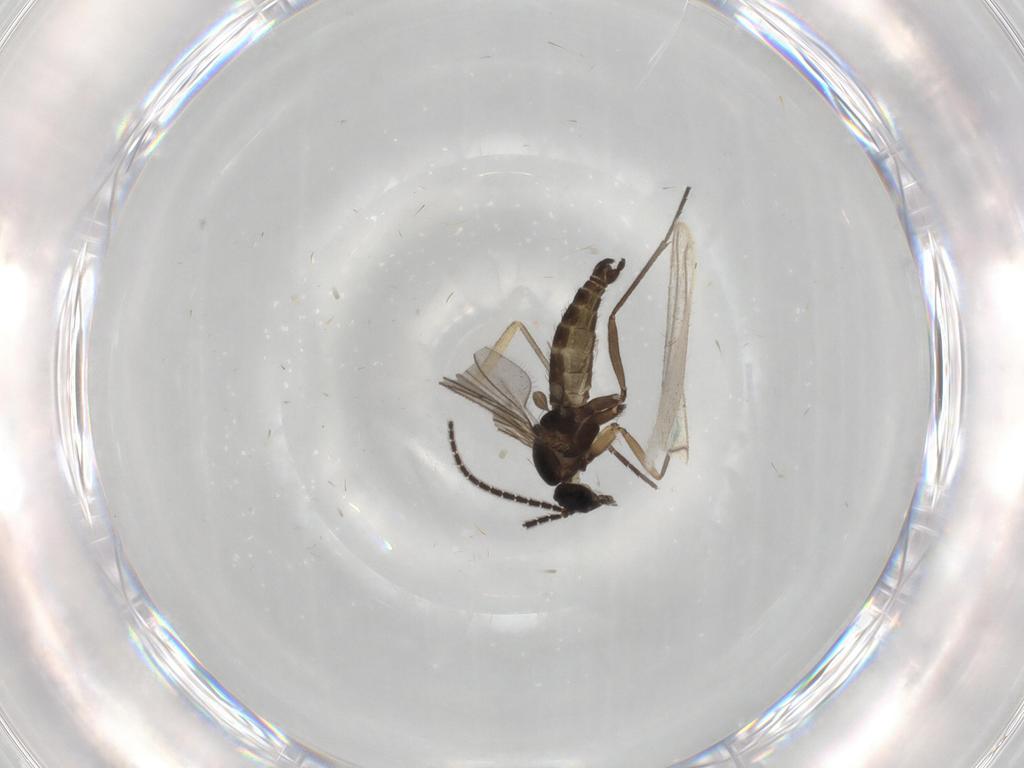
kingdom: Animalia
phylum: Arthropoda
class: Insecta
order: Diptera
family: Sciaridae
